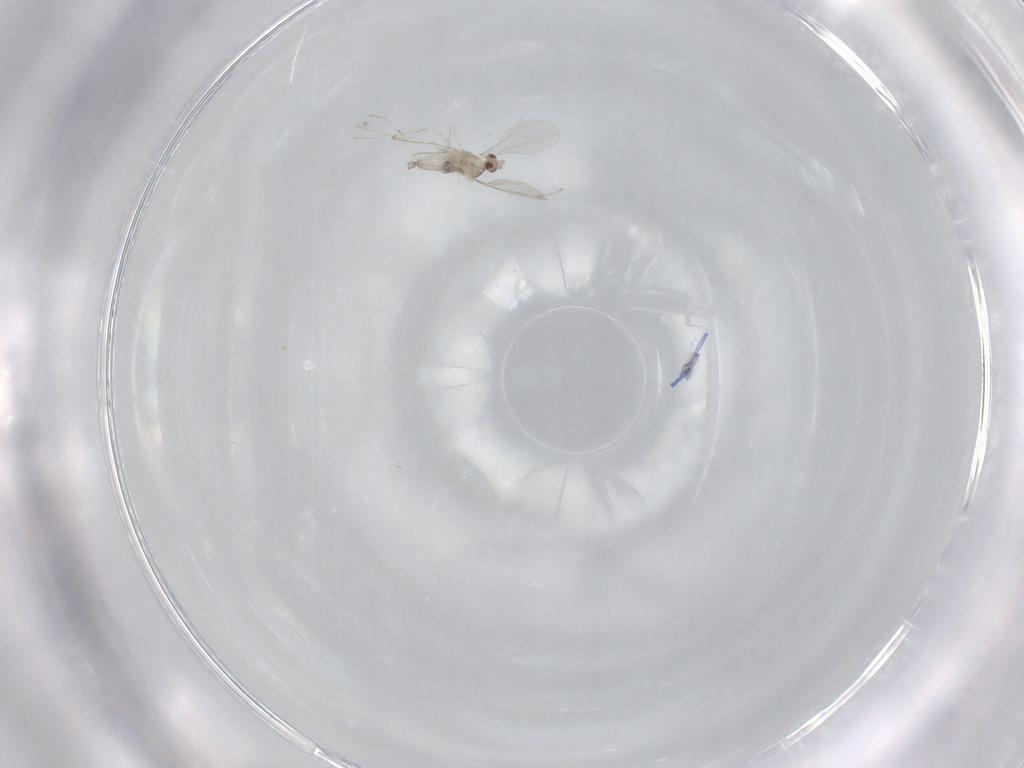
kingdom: Animalia
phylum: Arthropoda
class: Insecta
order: Diptera
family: Cecidomyiidae
